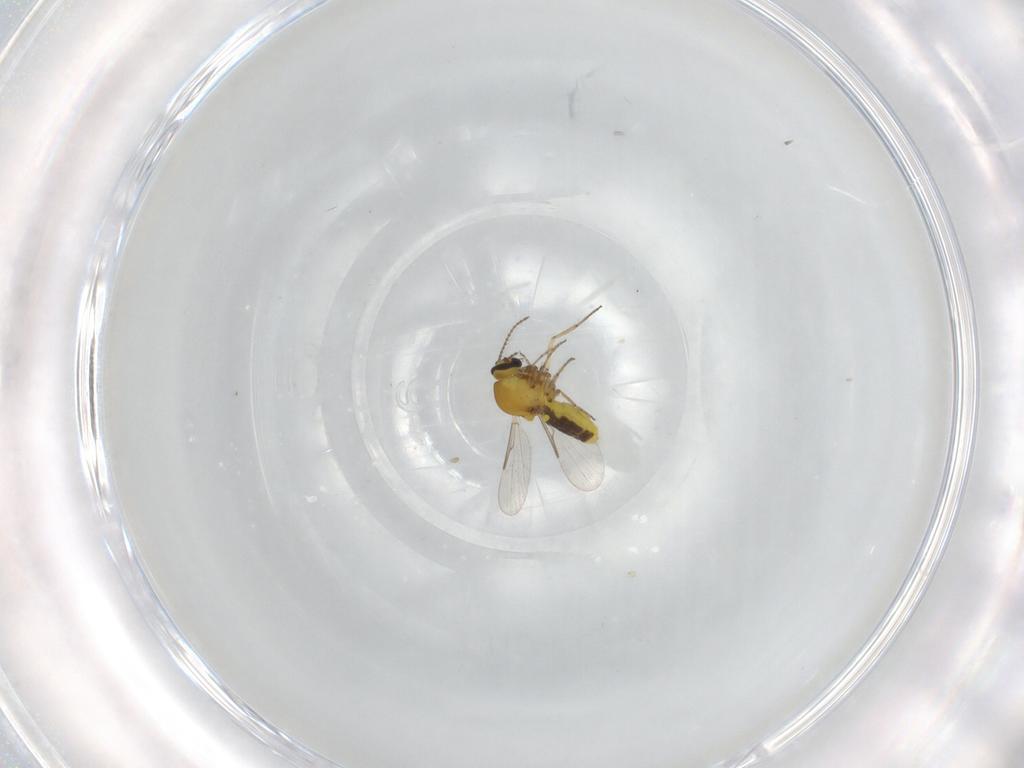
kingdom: Animalia
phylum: Arthropoda
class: Insecta
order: Diptera
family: Ceratopogonidae
